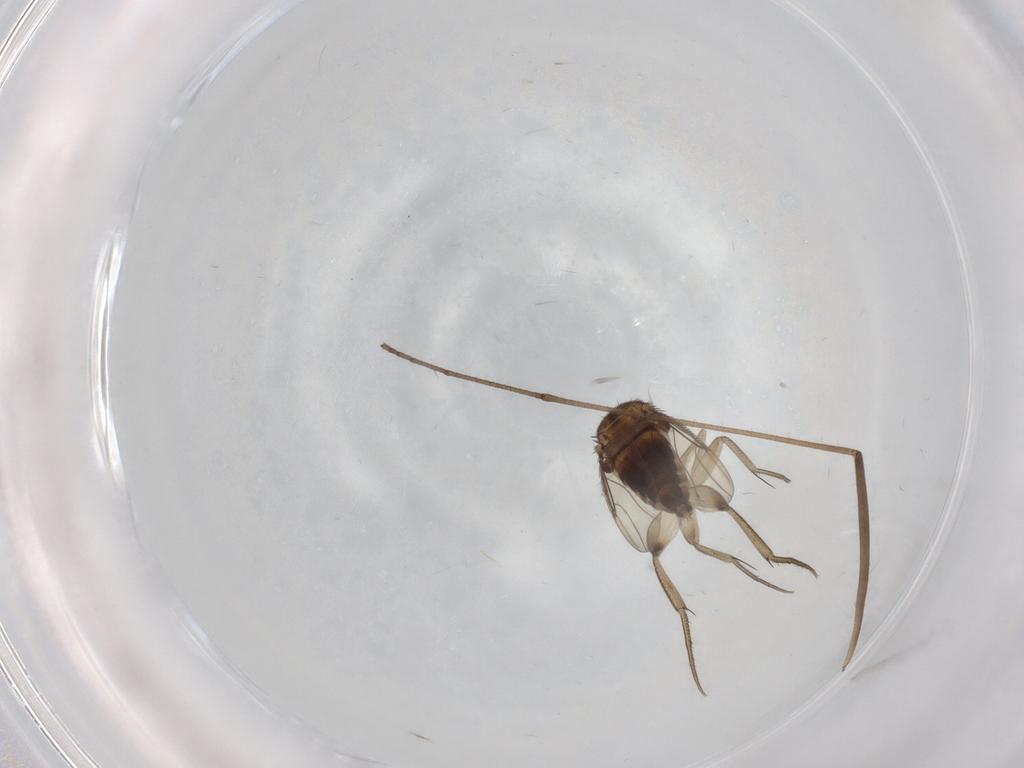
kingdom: Animalia
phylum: Arthropoda
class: Insecta
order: Diptera
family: Phoridae
